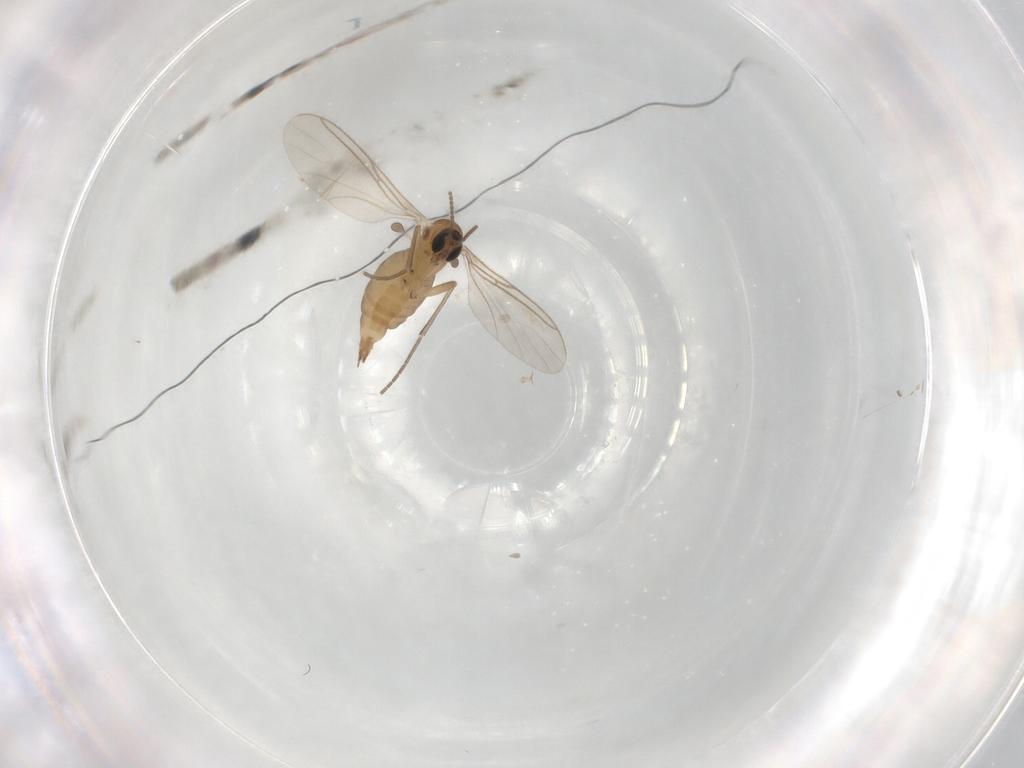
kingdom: Animalia
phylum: Arthropoda
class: Insecta
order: Diptera
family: Sciaridae
